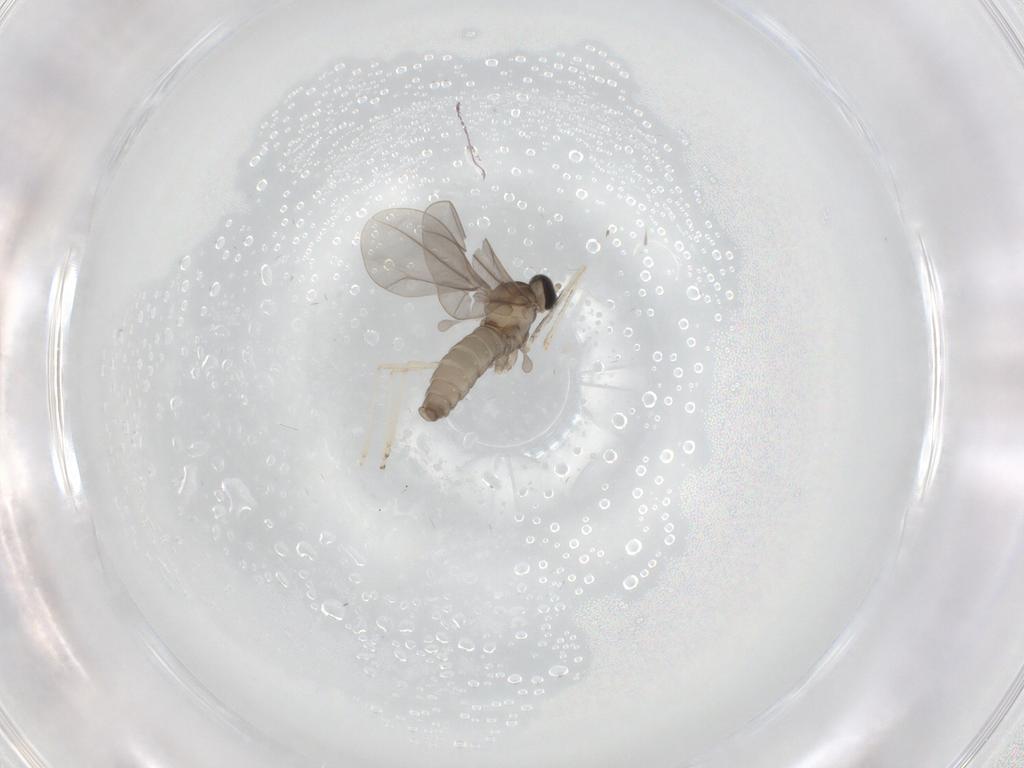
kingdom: Animalia
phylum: Arthropoda
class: Insecta
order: Diptera
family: Cecidomyiidae
